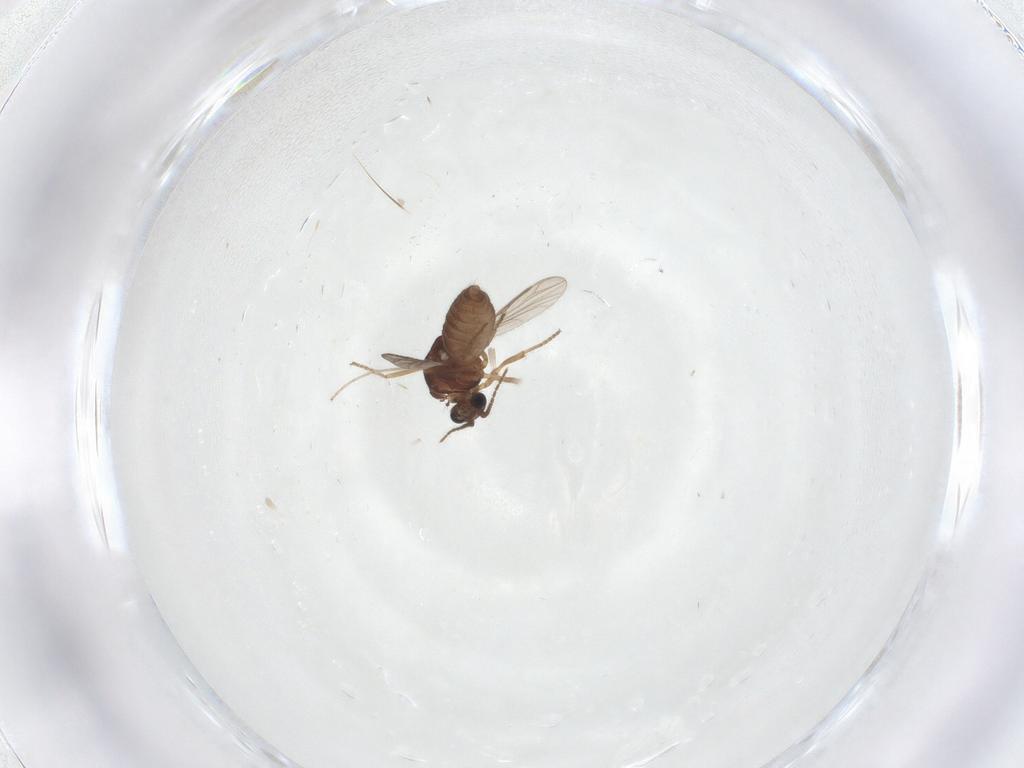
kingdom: Animalia
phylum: Arthropoda
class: Insecta
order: Diptera
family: Ceratopogonidae
